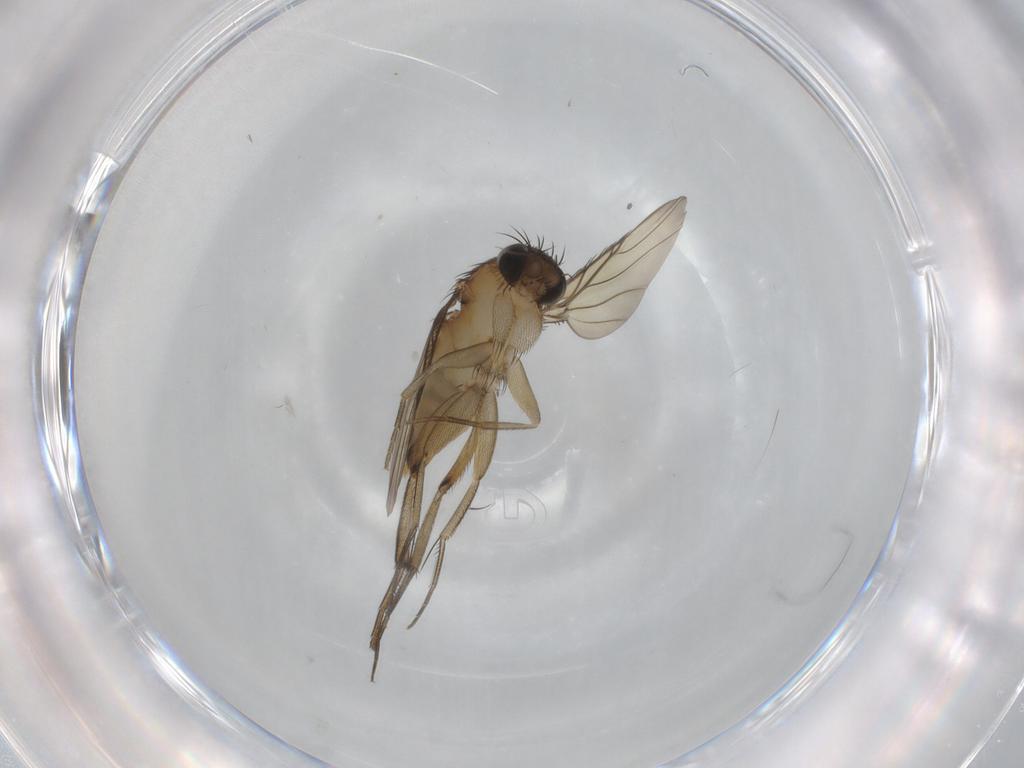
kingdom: Animalia
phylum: Arthropoda
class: Insecta
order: Diptera
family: Phoridae
